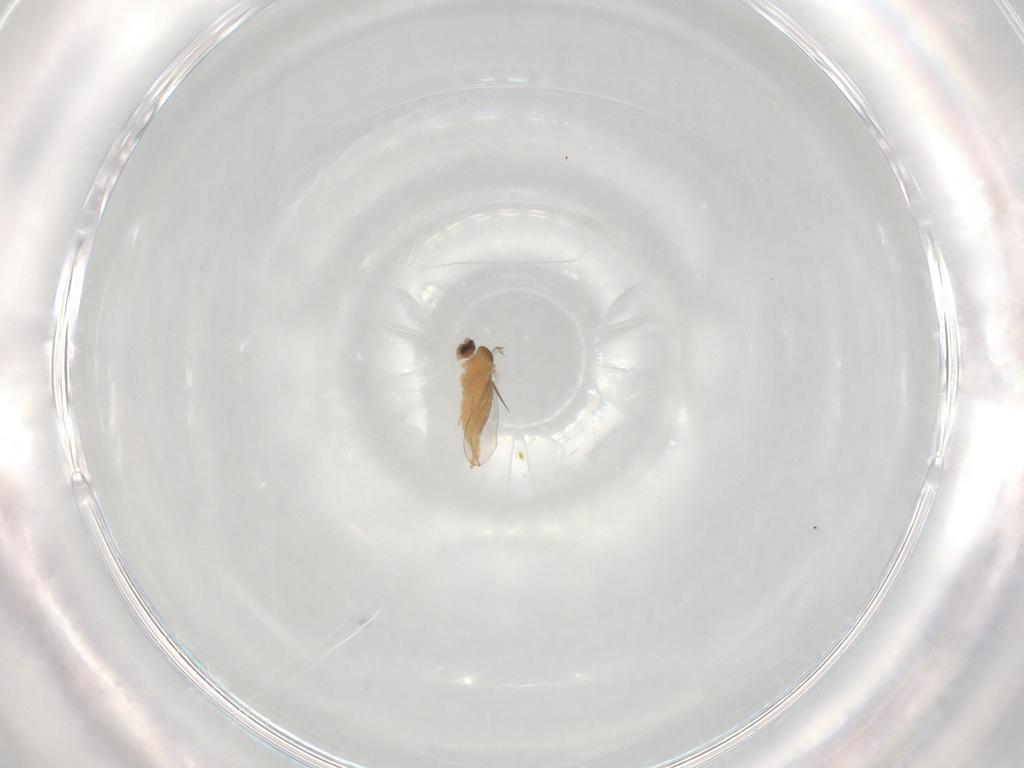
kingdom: Animalia
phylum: Arthropoda
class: Insecta
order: Diptera
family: Cecidomyiidae
